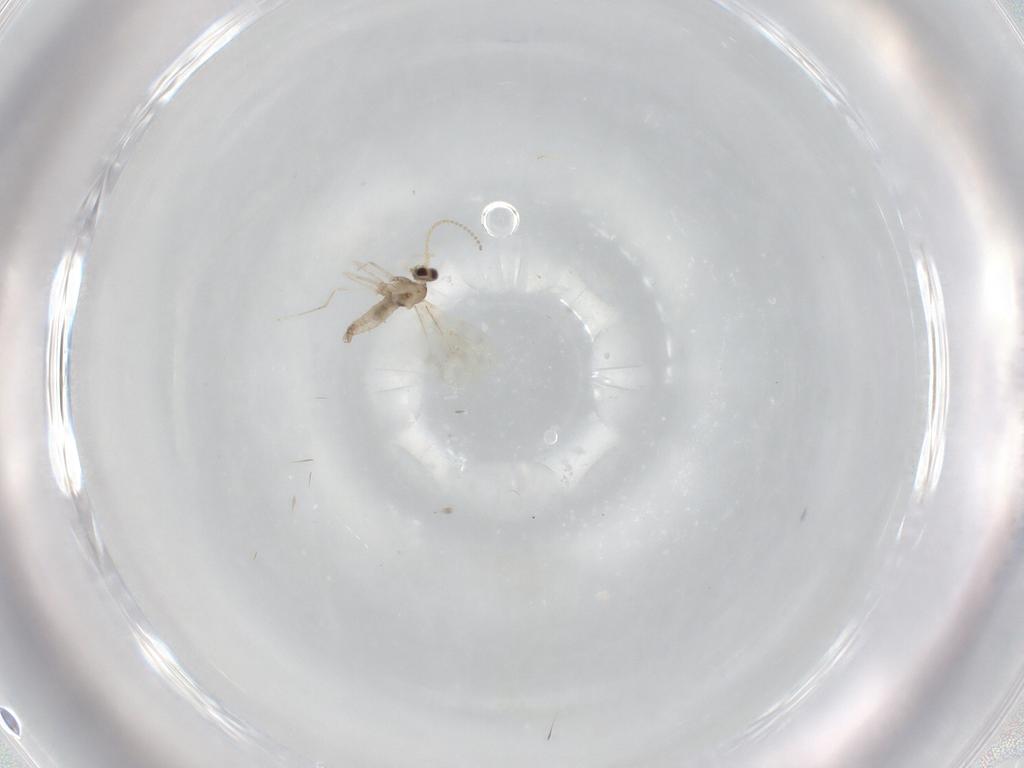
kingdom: Animalia
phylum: Arthropoda
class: Insecta
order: Diptera
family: Cecidomyiidae
